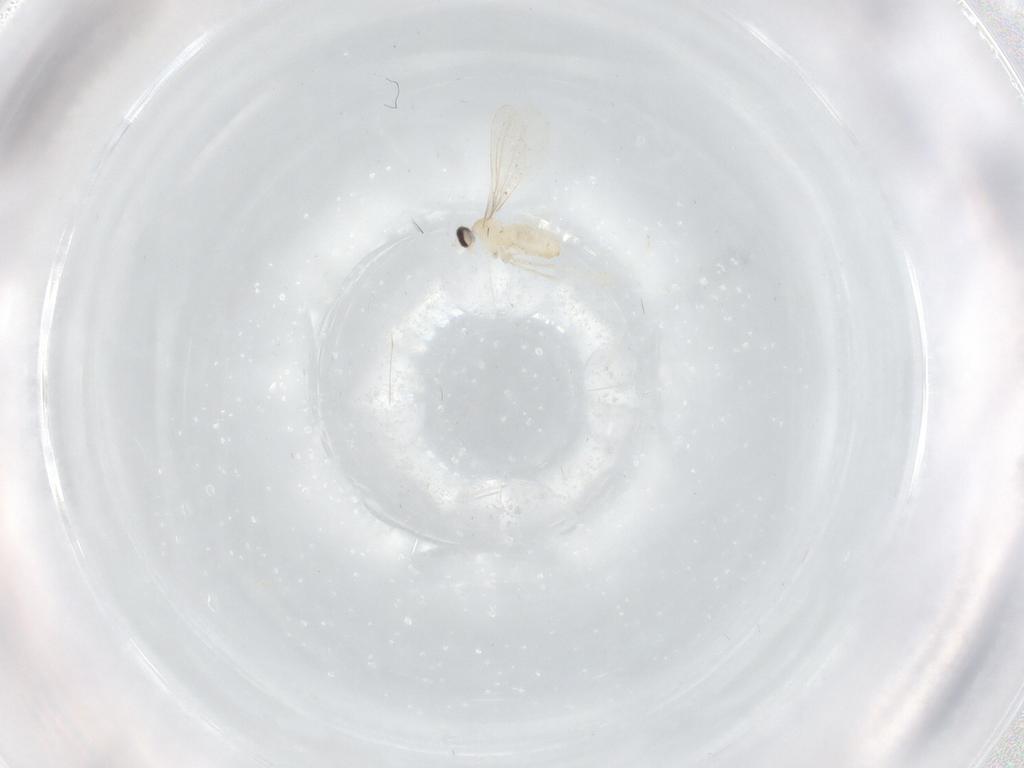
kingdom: Animalia
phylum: Arthropoda
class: Insecta
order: Diptera
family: Cecidomyiidae
